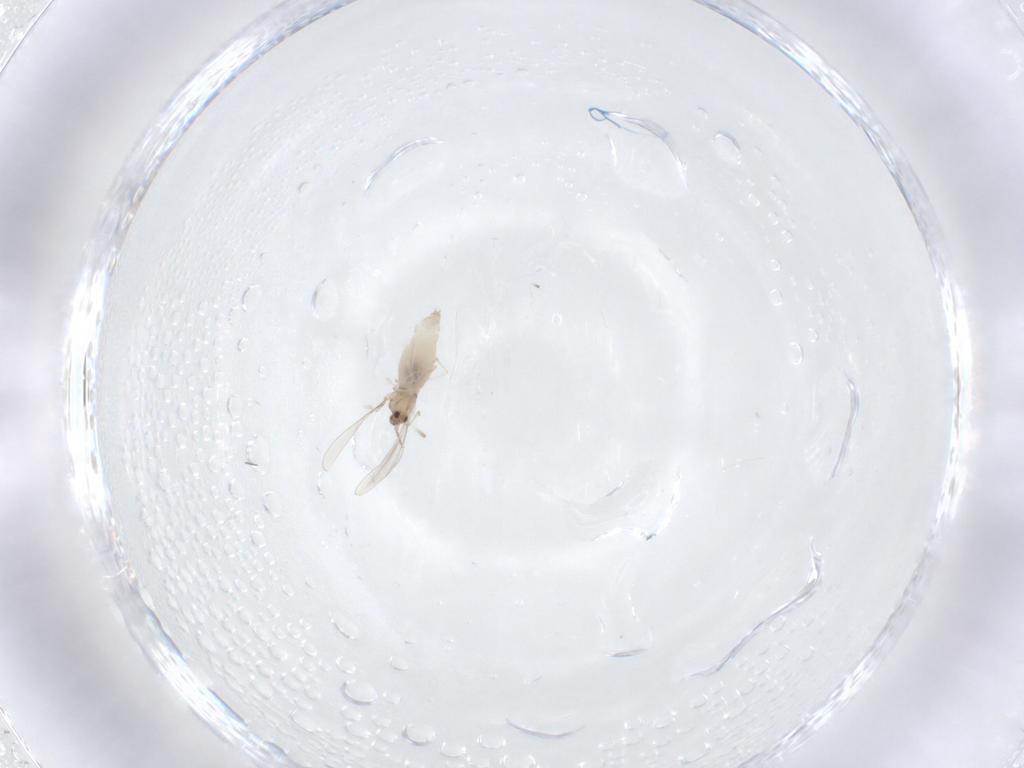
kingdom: Animalia
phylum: Arthropoda
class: Insecta
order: Diptera
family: Cecidomyiidae
